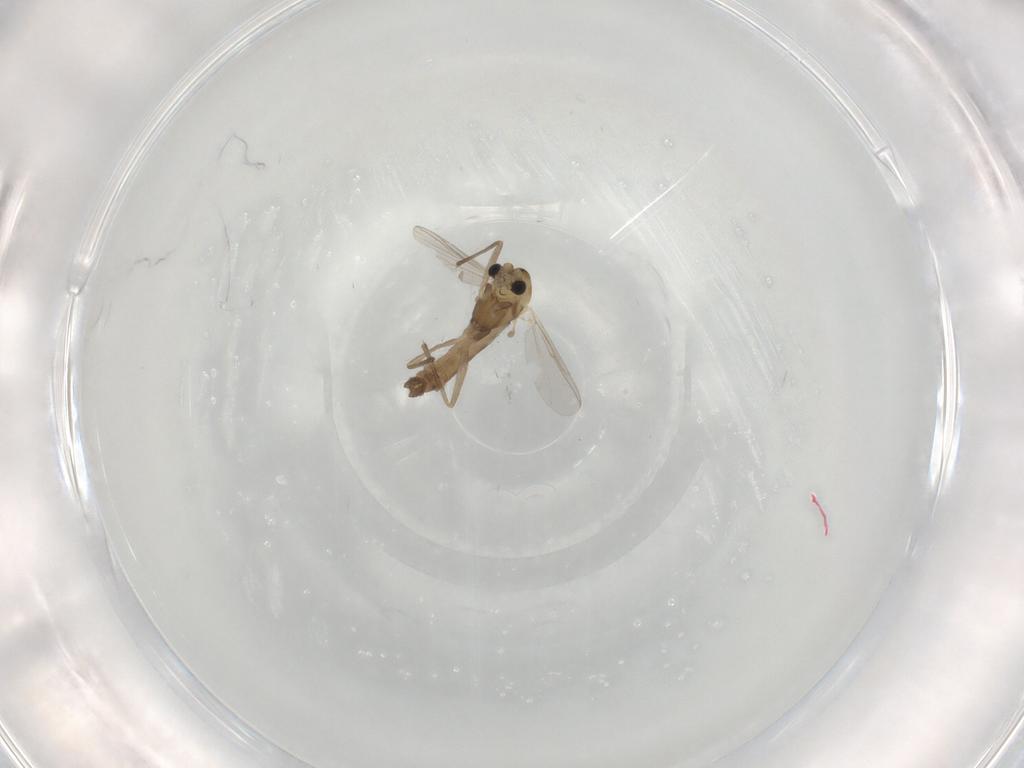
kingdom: Animalia
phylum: Arthropoda
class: Insecta
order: Diptera
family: Chironomidae
